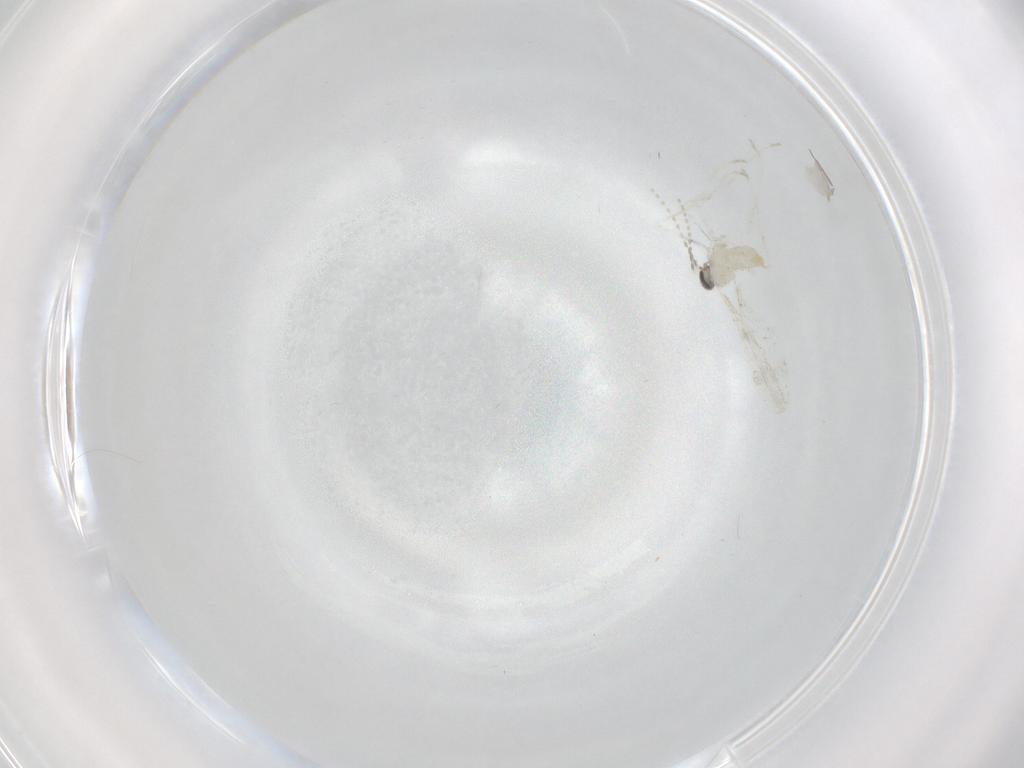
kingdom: Animalia
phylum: Arthropoda
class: Insecta
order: Diptera
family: Cecidomyiidae
